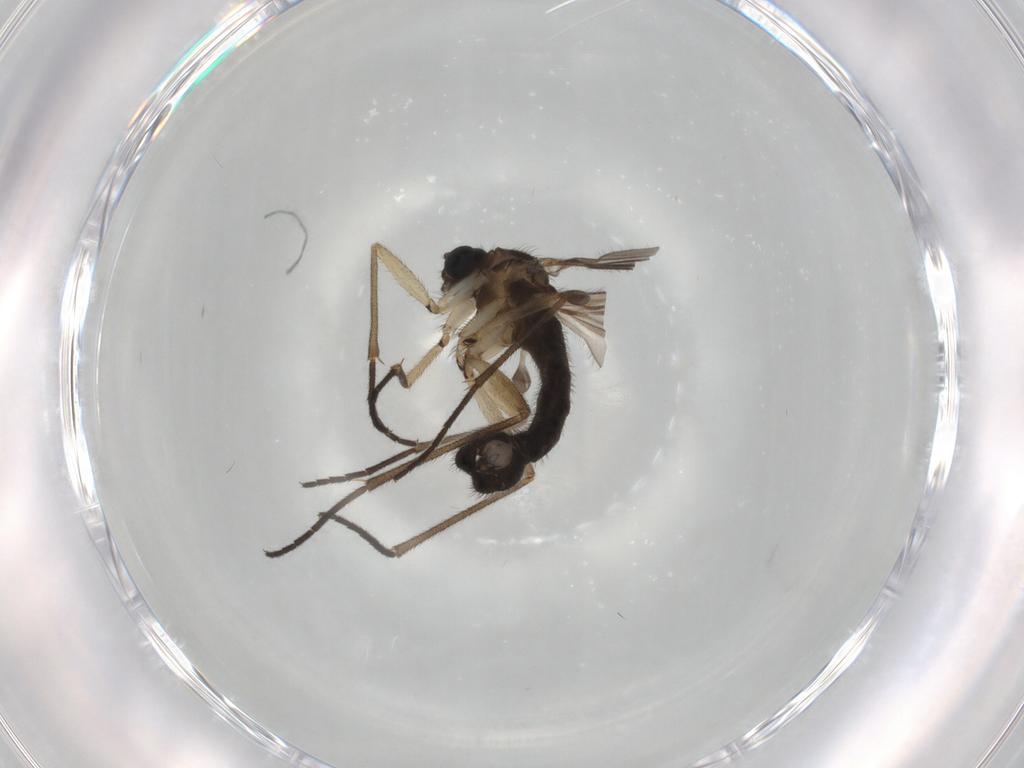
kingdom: Animalia
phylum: Arthropoda
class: Insecta
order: Diptera
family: Sciaridae
